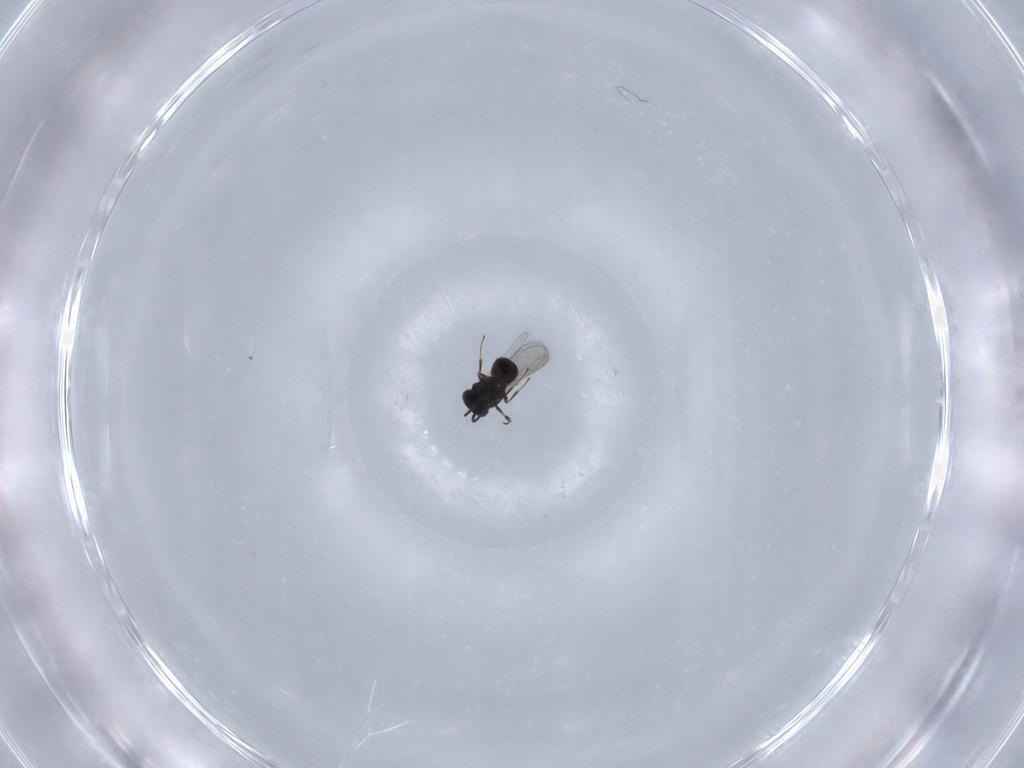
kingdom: Animalia
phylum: Arthropoda
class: Insecta
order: Hymenoptera
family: Scelionidae
